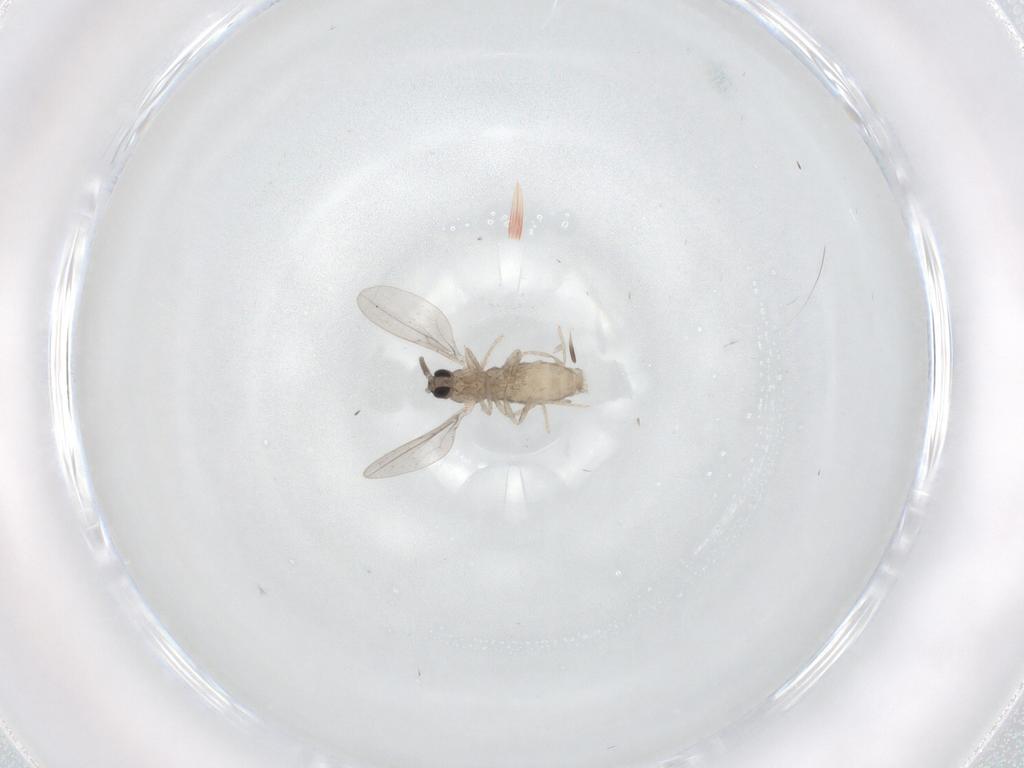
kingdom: Animalia
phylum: Arthropoda
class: Insecta
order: Diptera
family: Cecidomyiidae
